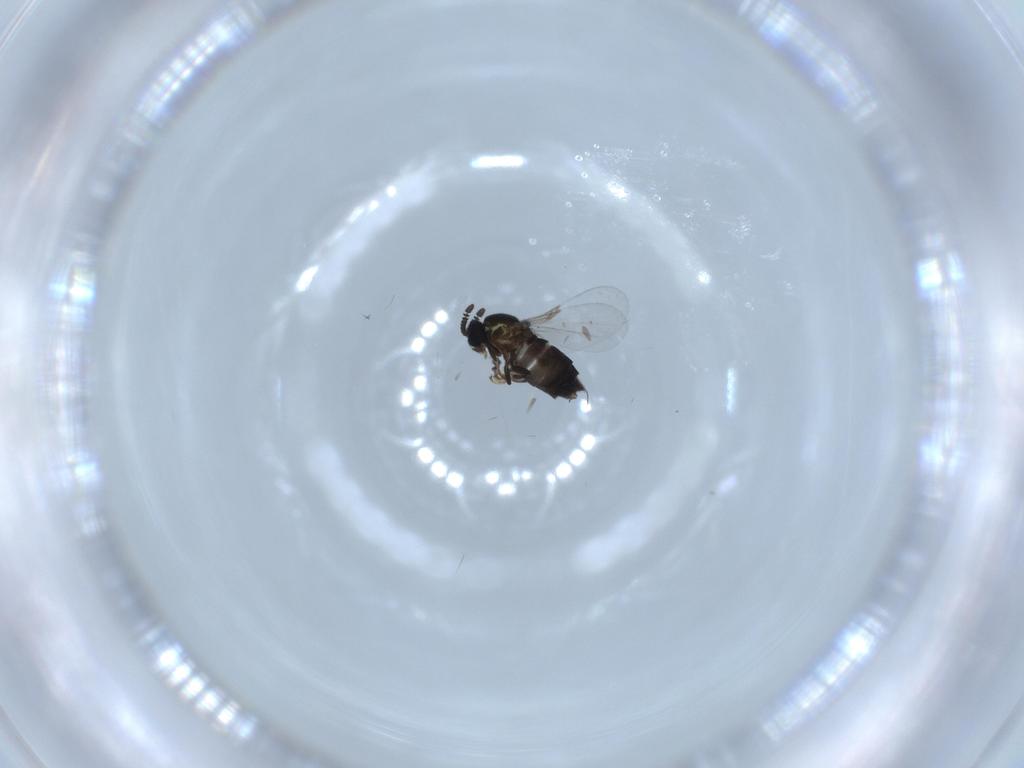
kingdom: Animalia
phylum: Arthropoda
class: Insecta
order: Diptera
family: Scatopsidae
